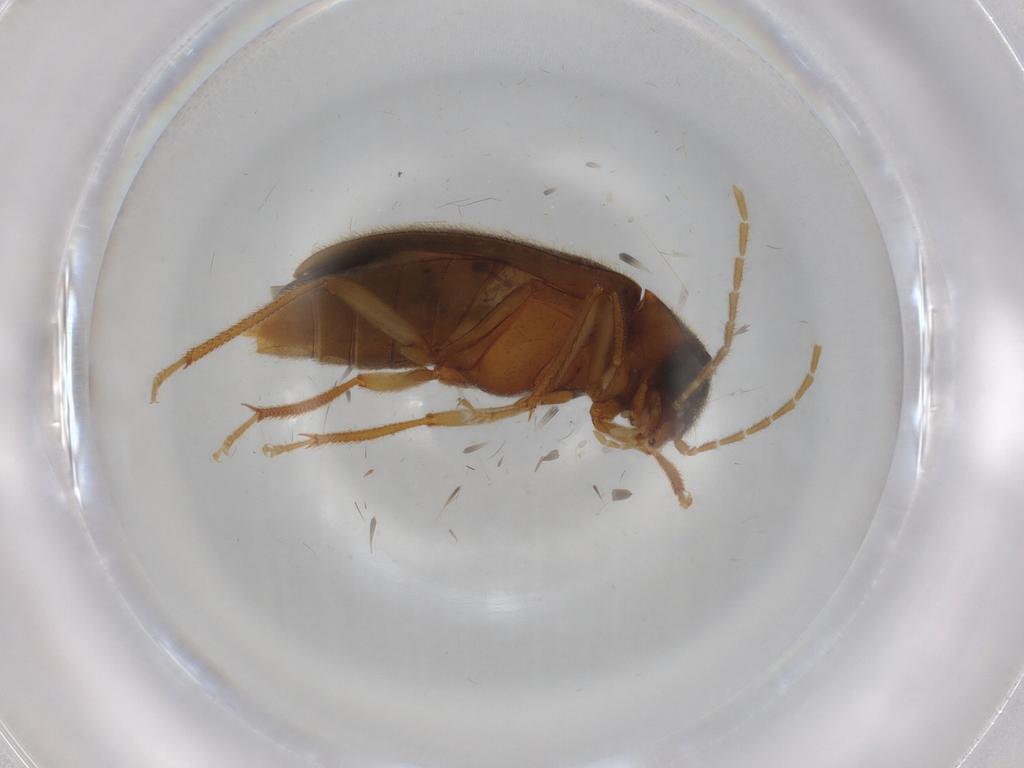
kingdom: Animalia
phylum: Arthropoda
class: Insecta
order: Coleoptera
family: Ptilodactylidae
